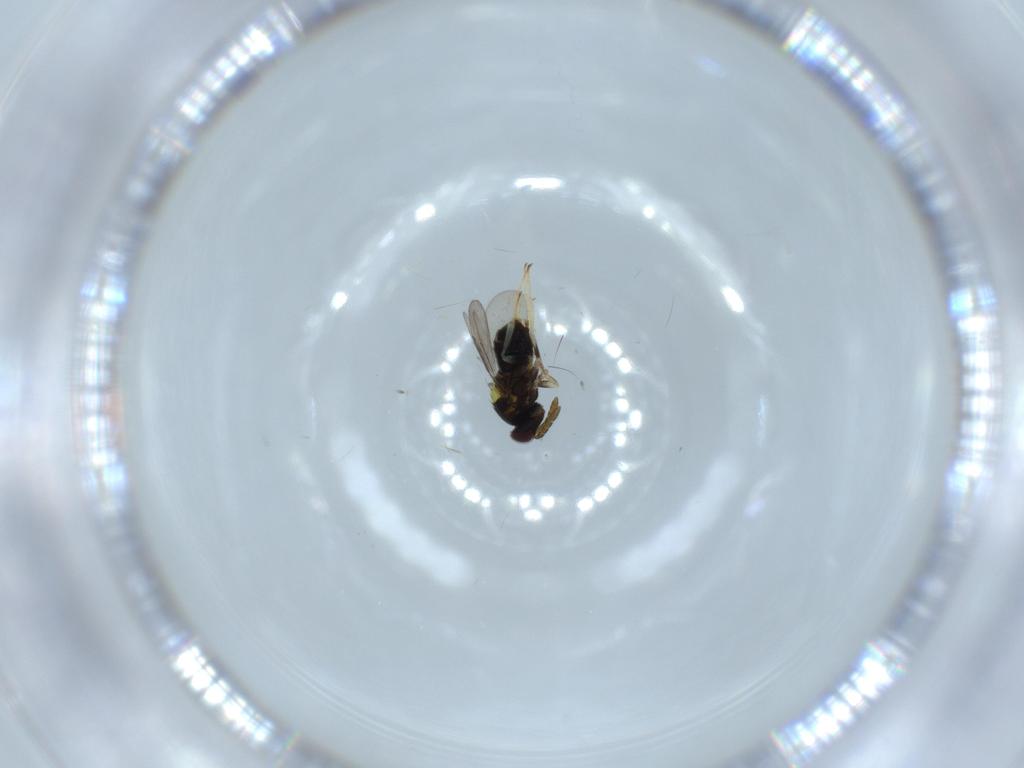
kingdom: Animalia
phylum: Arthropoda
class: Insecta
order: Hymenoptera
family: Aphelinidae
